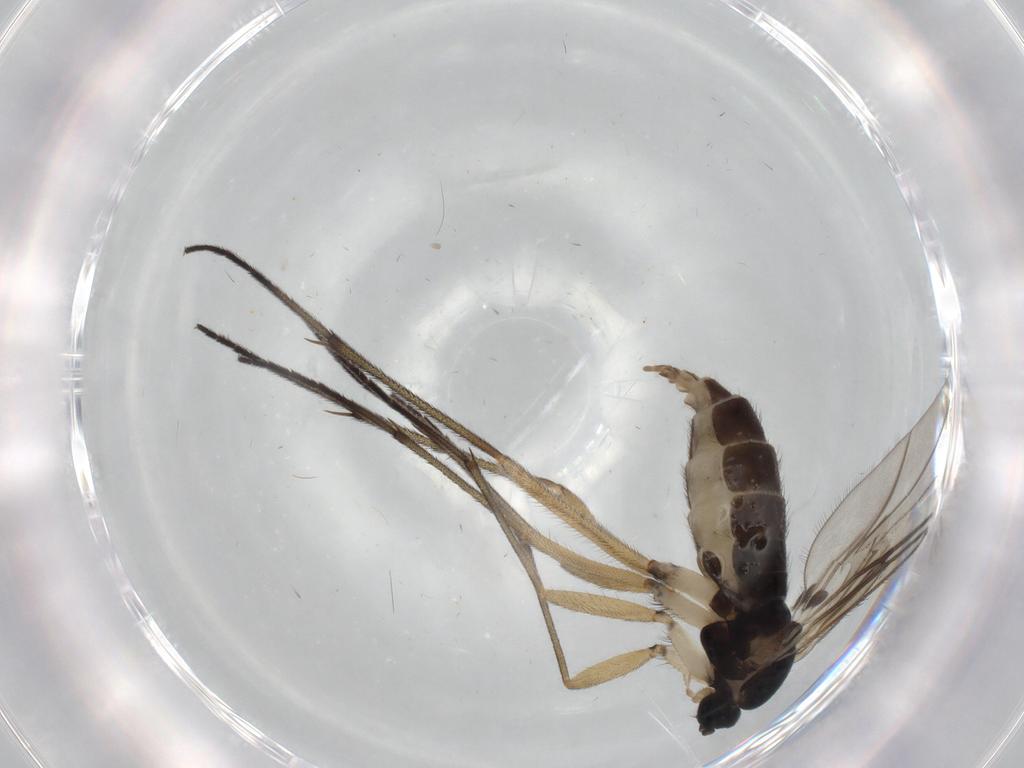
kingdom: Animalia
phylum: Arthropoda
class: Insecta
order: Diptera
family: Sciaridae
